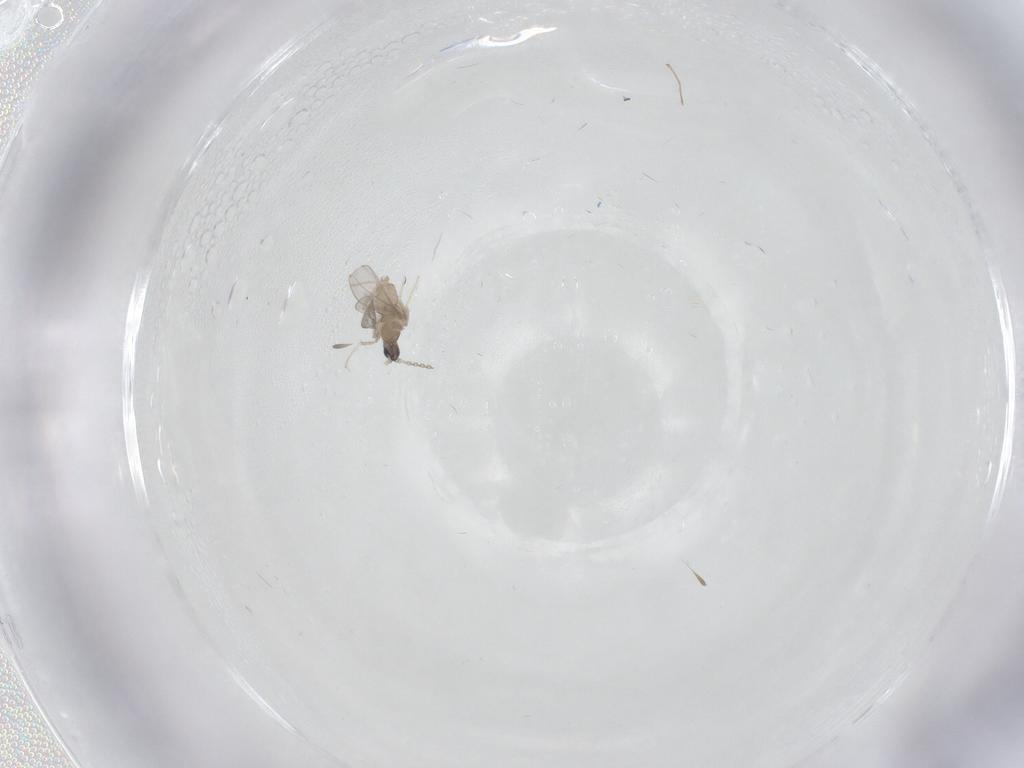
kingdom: Animalia
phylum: Arthropoda
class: Insecta
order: Diptera
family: Cecidomyiidae
